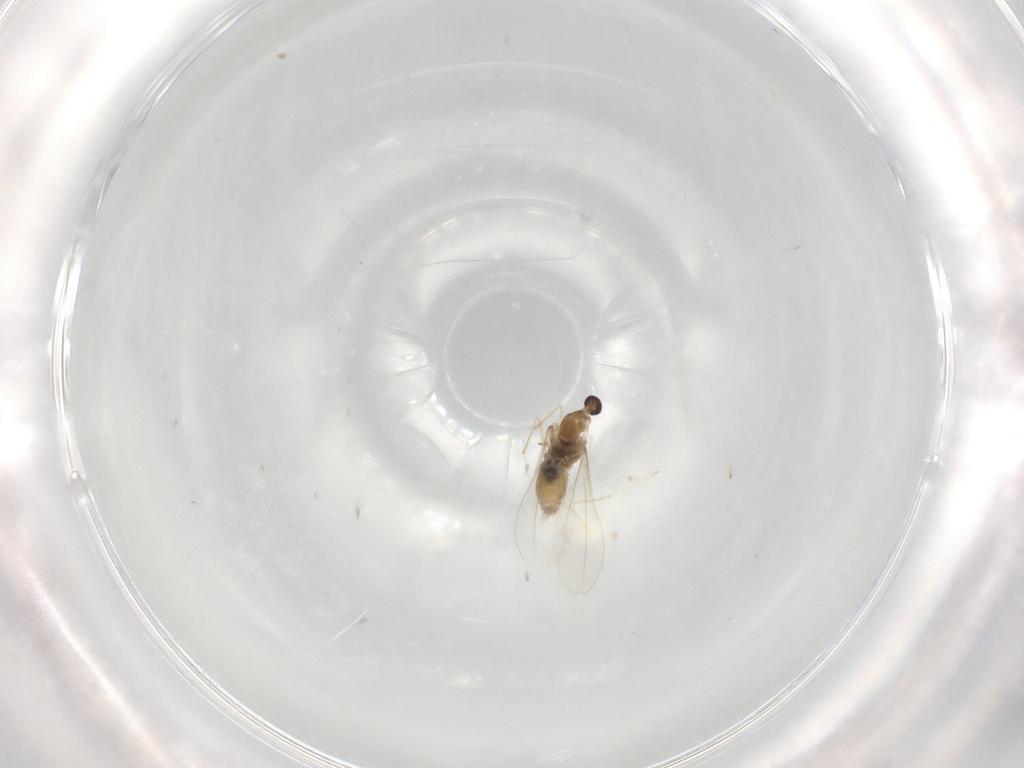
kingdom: Animalia
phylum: Arthropoda
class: Insecta
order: Diptera
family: Cecidomyiidae
